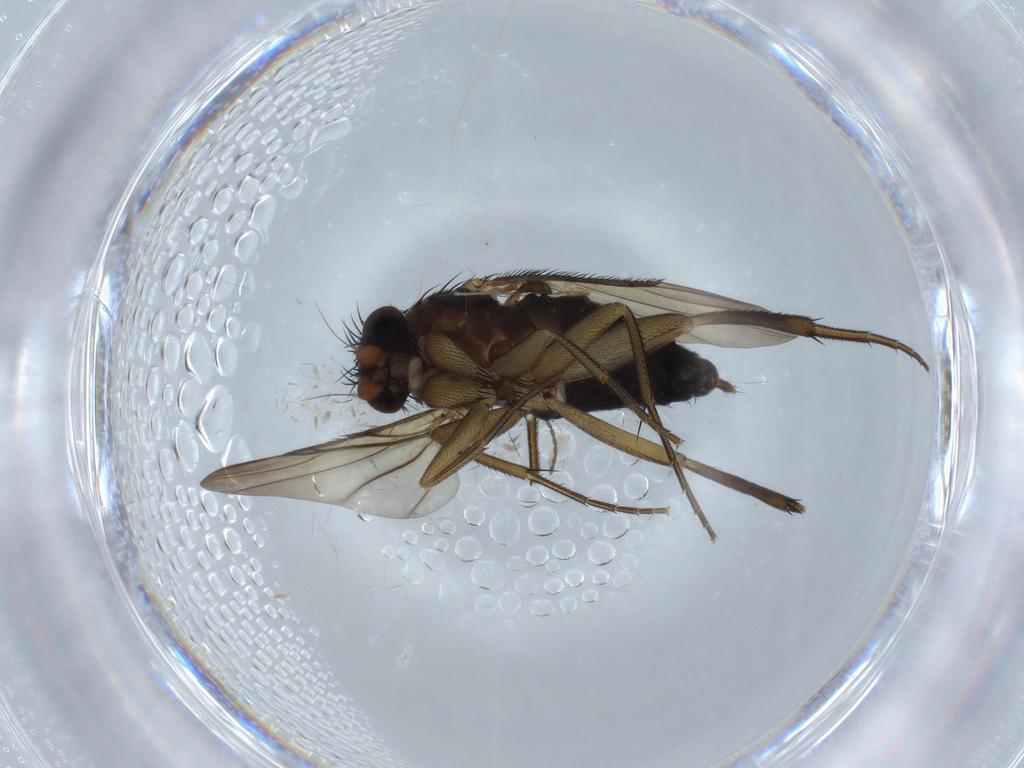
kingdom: Animalia
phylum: Arthropoda
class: Insecta
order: Diptera
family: Phoridae
